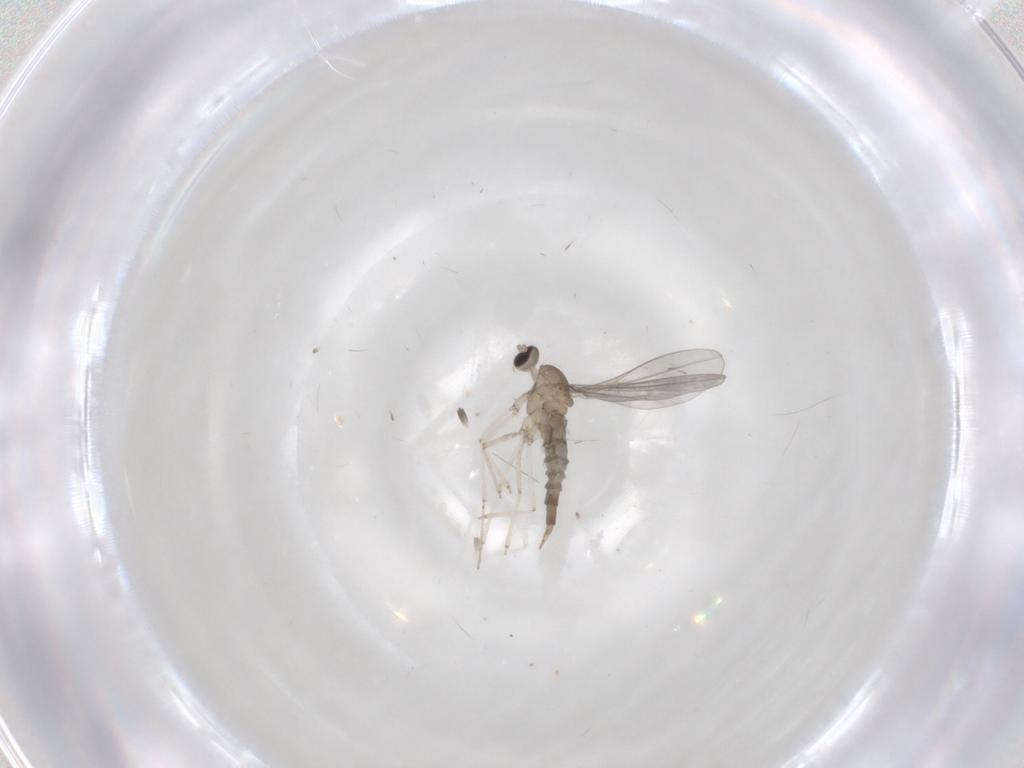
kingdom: Animalia
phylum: Arthropoda
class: Insecta
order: Diptera
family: Cecidomyiidae
